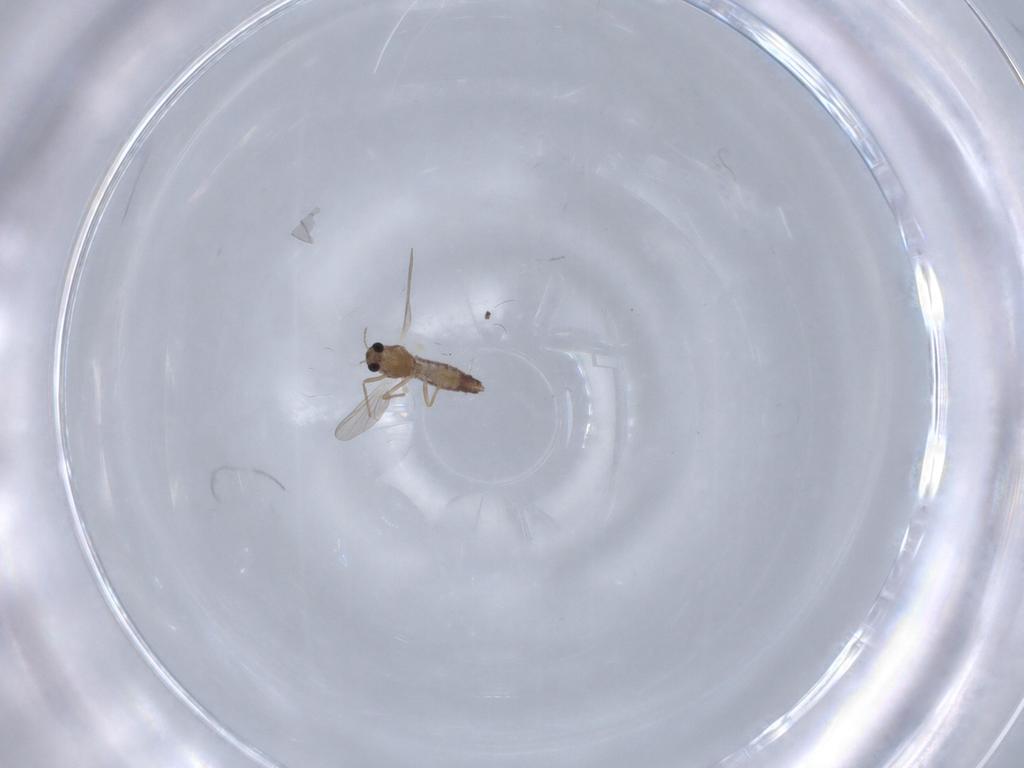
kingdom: Animalia
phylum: Arthropoda
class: Insecta
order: Diptera
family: Chironomidae
